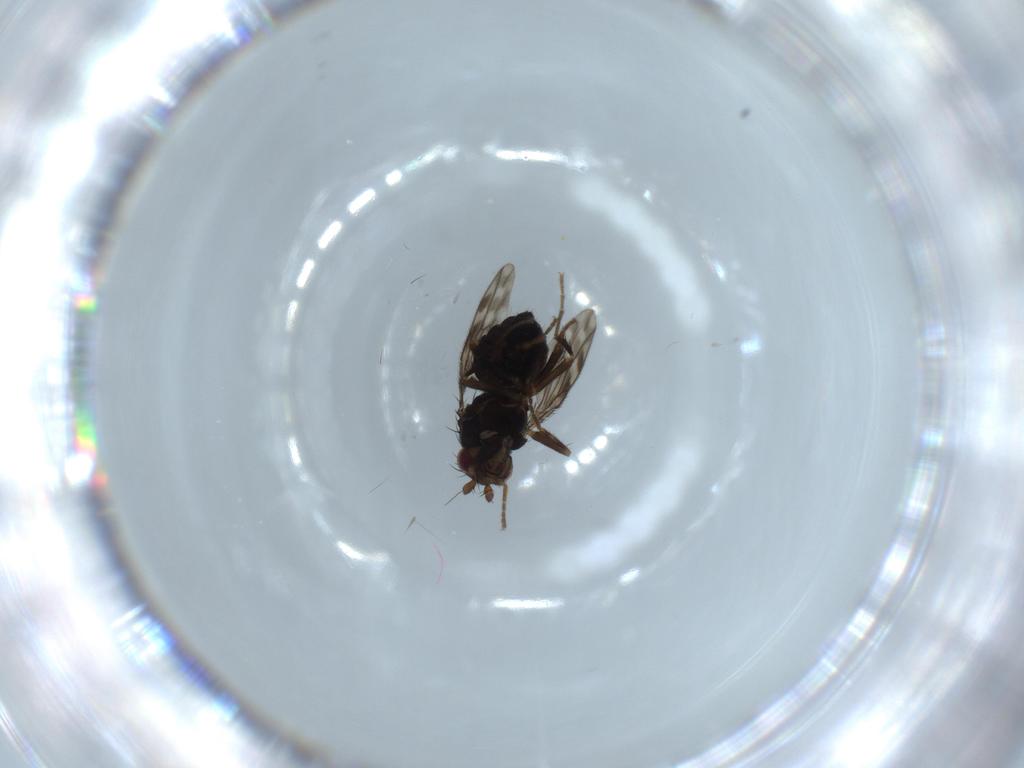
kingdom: Animalia
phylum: Arthropoda
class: Insecta
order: Diptera
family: Sphaeroceridae
